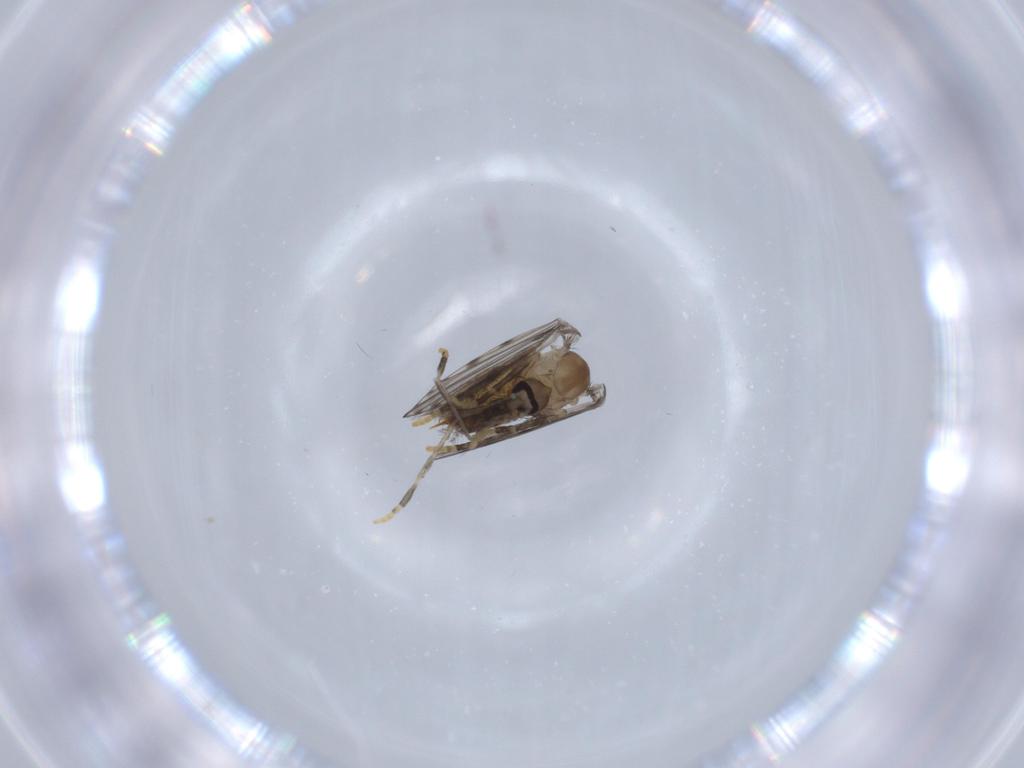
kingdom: Animalia
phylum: Arthropoda
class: Insecta
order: Diptera
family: Psychodidae
